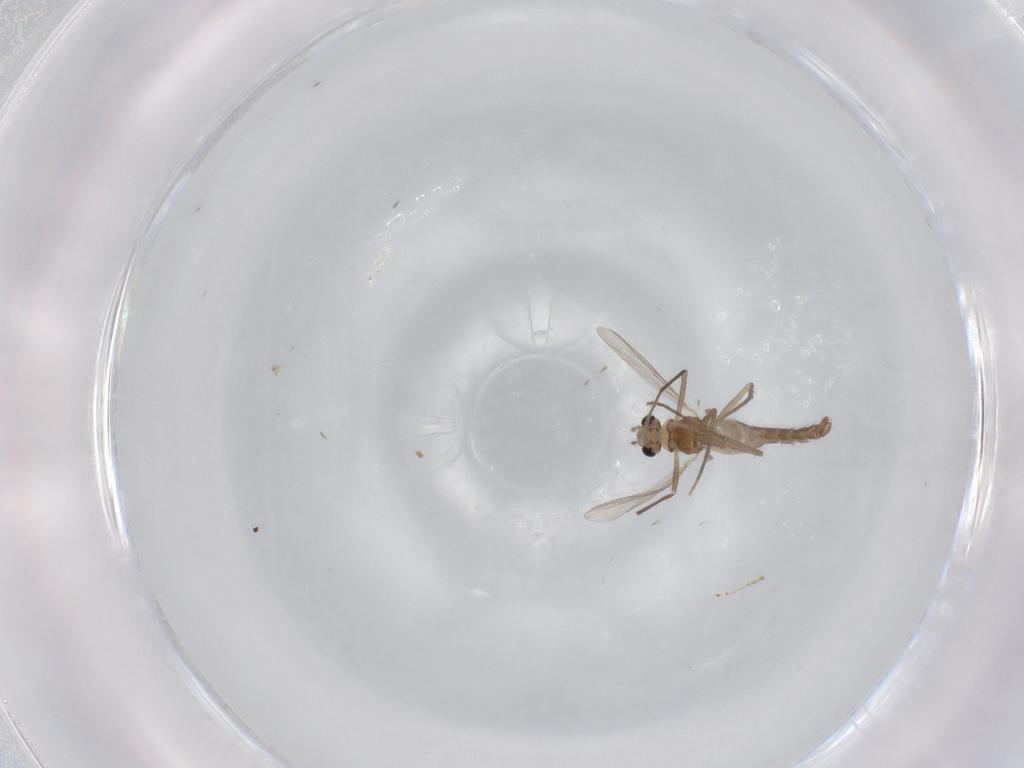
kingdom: Animalia
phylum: Arthropoda
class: Insecta
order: Diptera
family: Chironomidae
